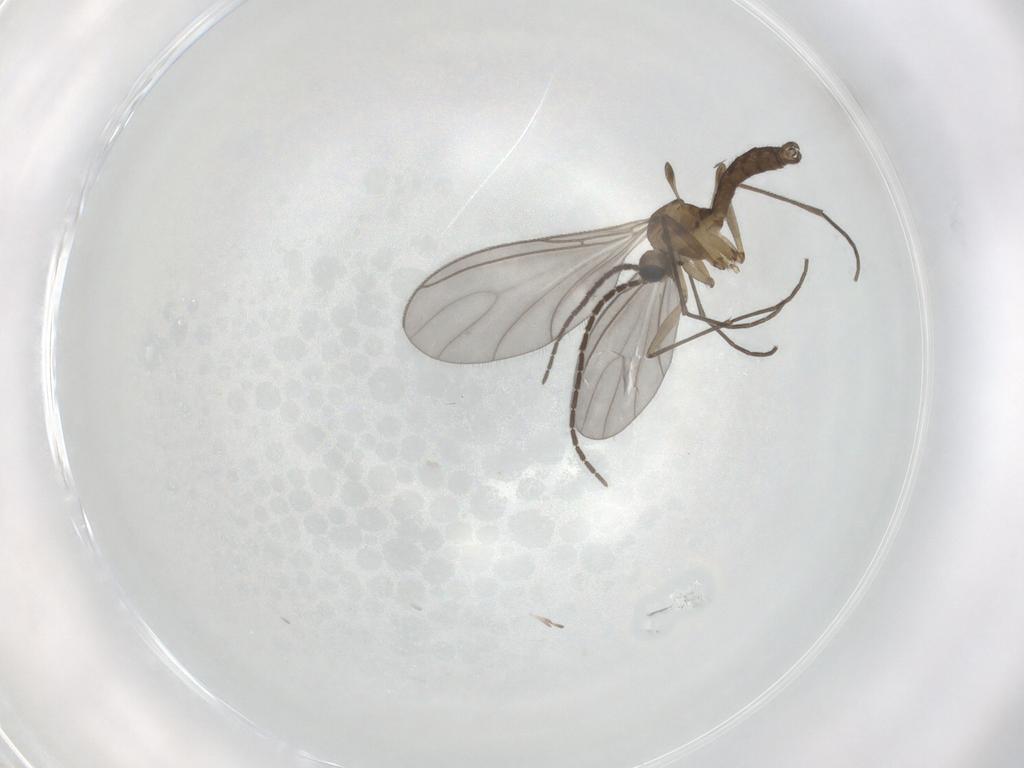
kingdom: Animalia
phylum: Arthropoda
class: Insecta
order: Diptera
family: Sciaridae
